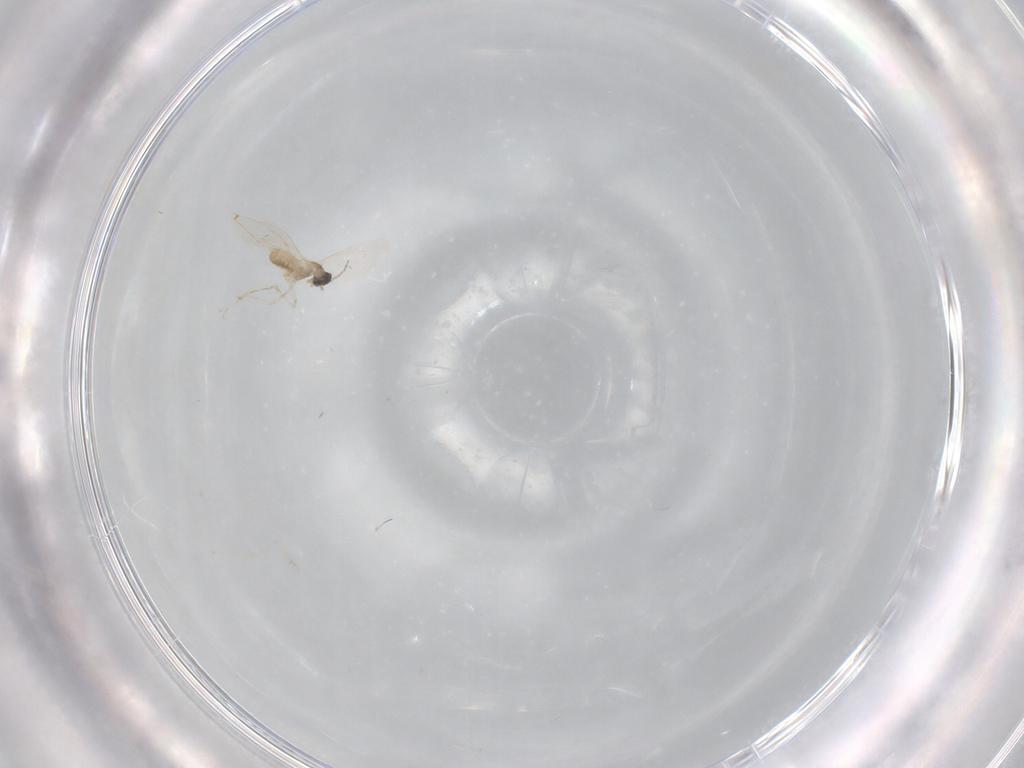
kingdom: Animalia
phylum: Arthropoda
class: Insecta
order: Diptera
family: Cecidomyiidae
